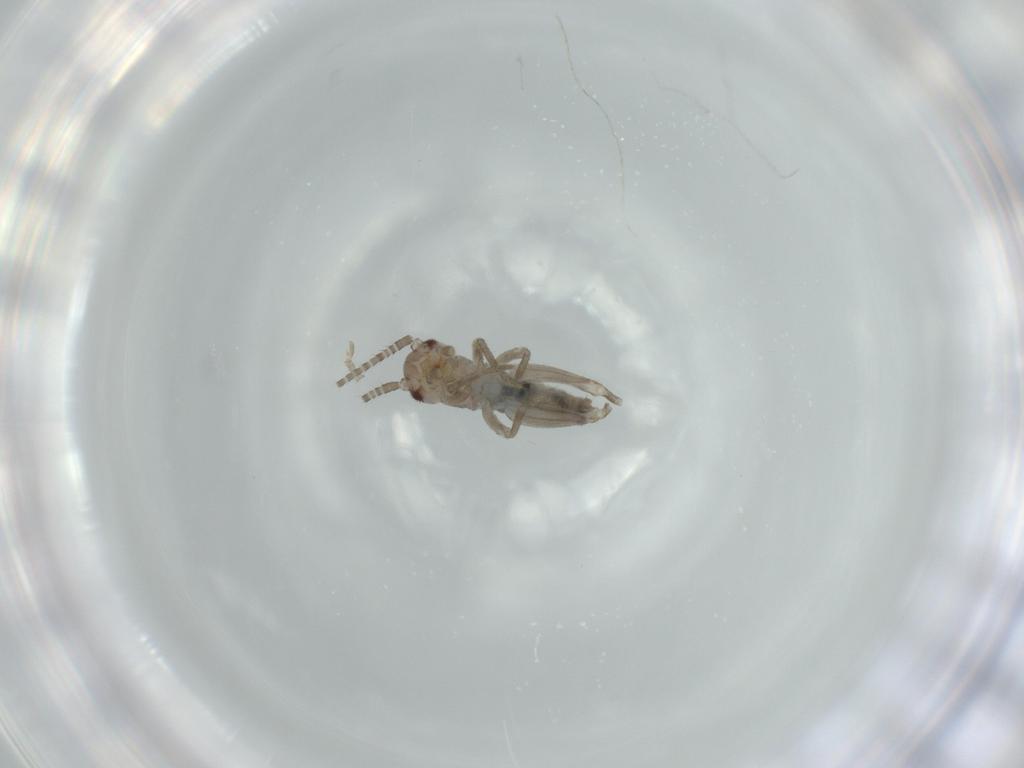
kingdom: Animalia
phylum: Arthropoda
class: Insecta
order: Orthoptera
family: Gryllidae
